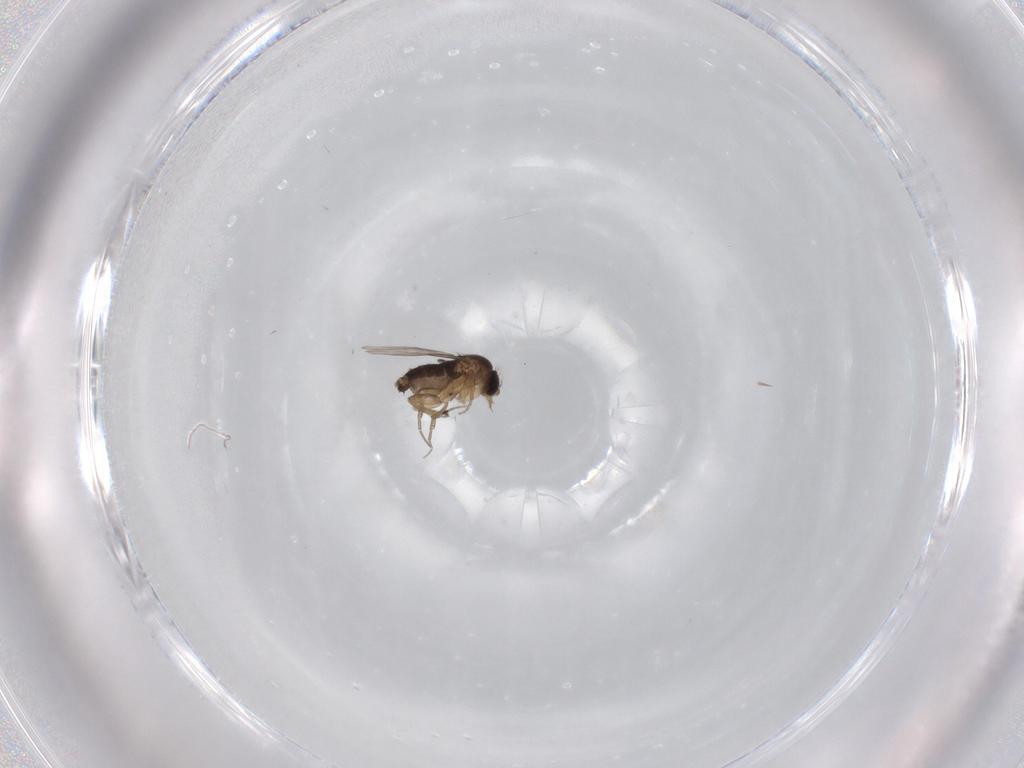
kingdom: Animalia
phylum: Arthropoda
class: Insecta
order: Diptera
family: Phoridae
